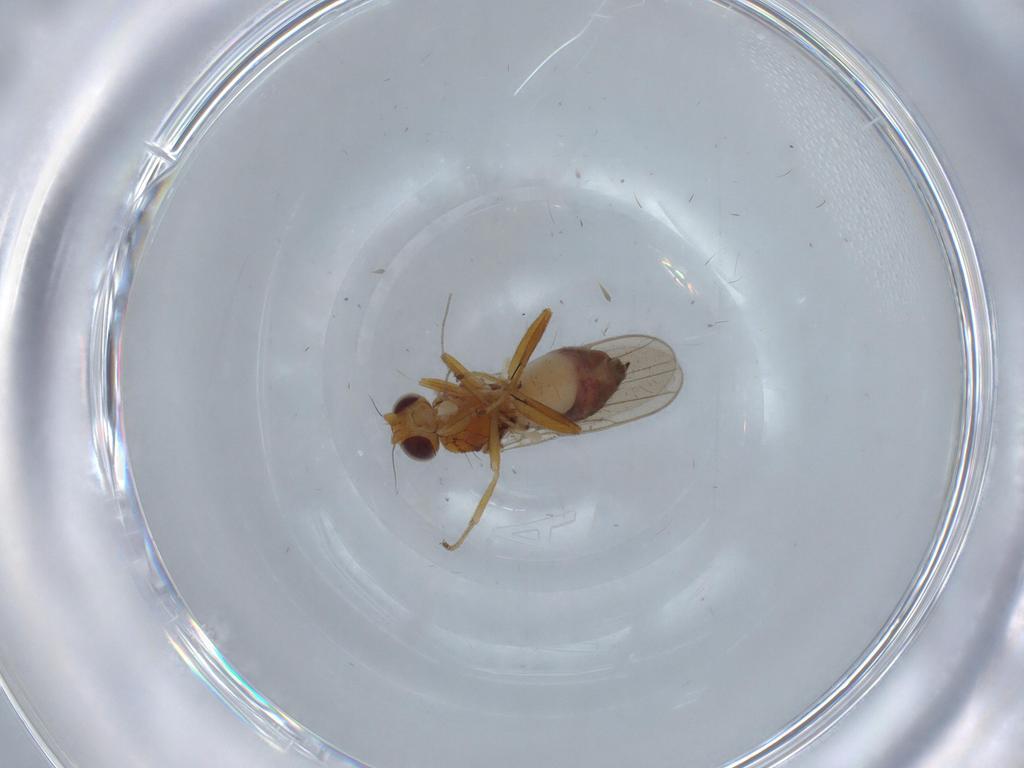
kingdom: Animalia
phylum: Arthropoda
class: Insecta
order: Diptera
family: Chloropidae
